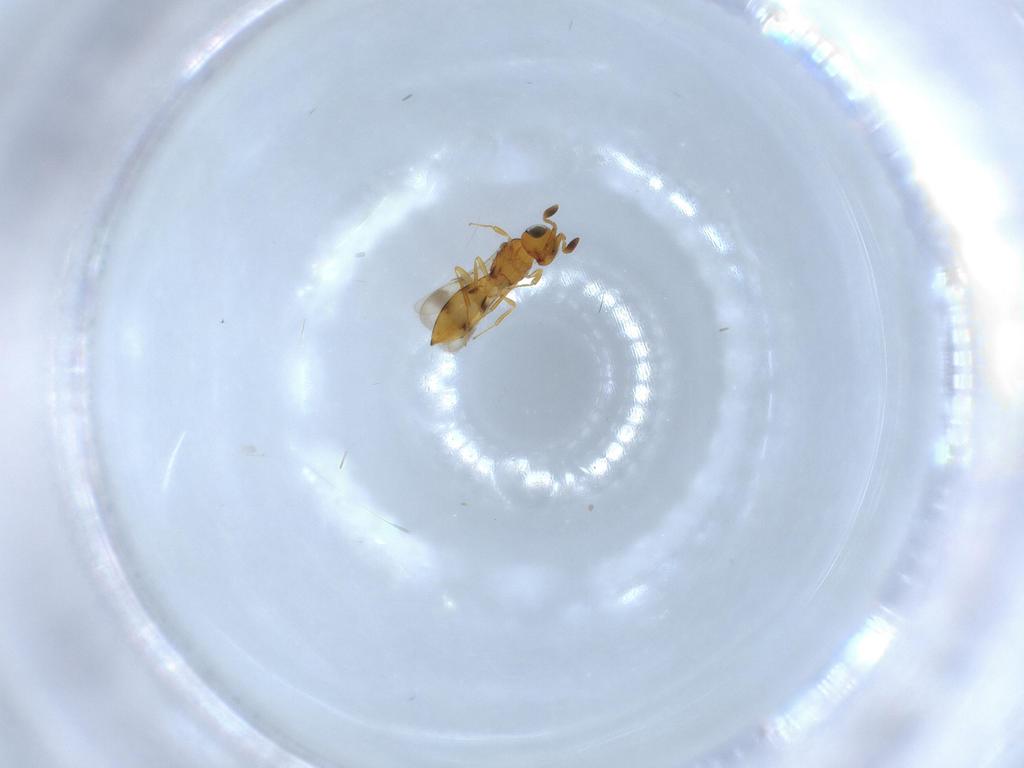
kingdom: Animalia
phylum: Arthropoda
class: Insecta
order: Hymenoptera
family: Scelionidae
